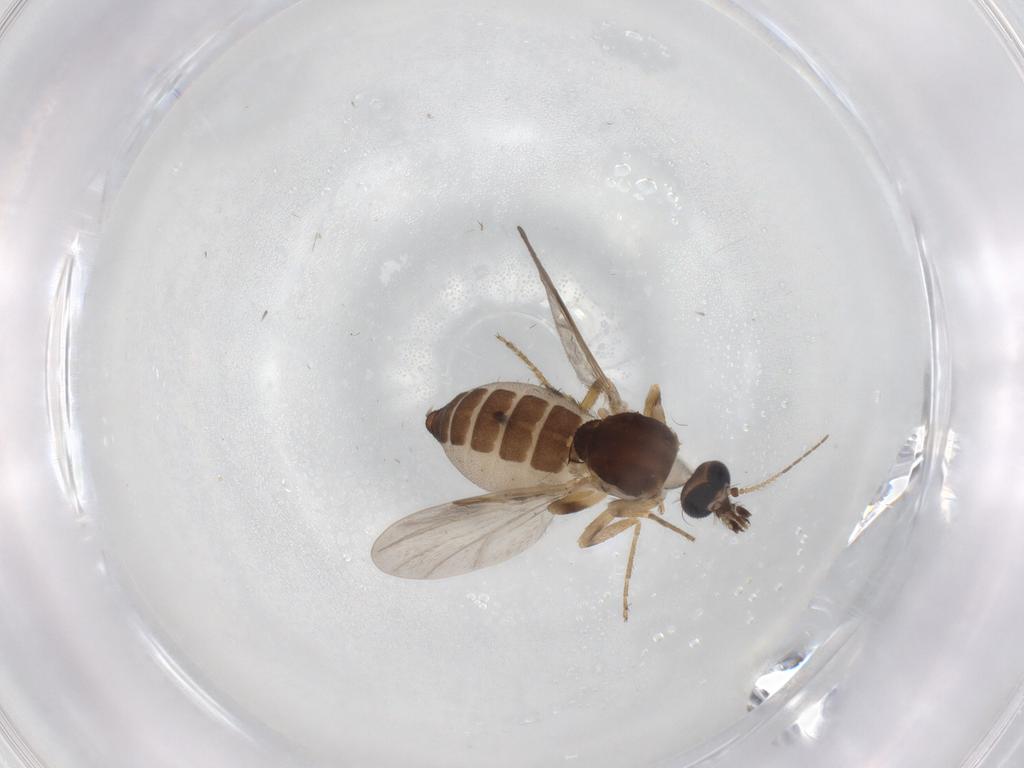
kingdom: Animalia
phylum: Arthropoda
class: Insecta
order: Diptera
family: Ceratopogonidae
